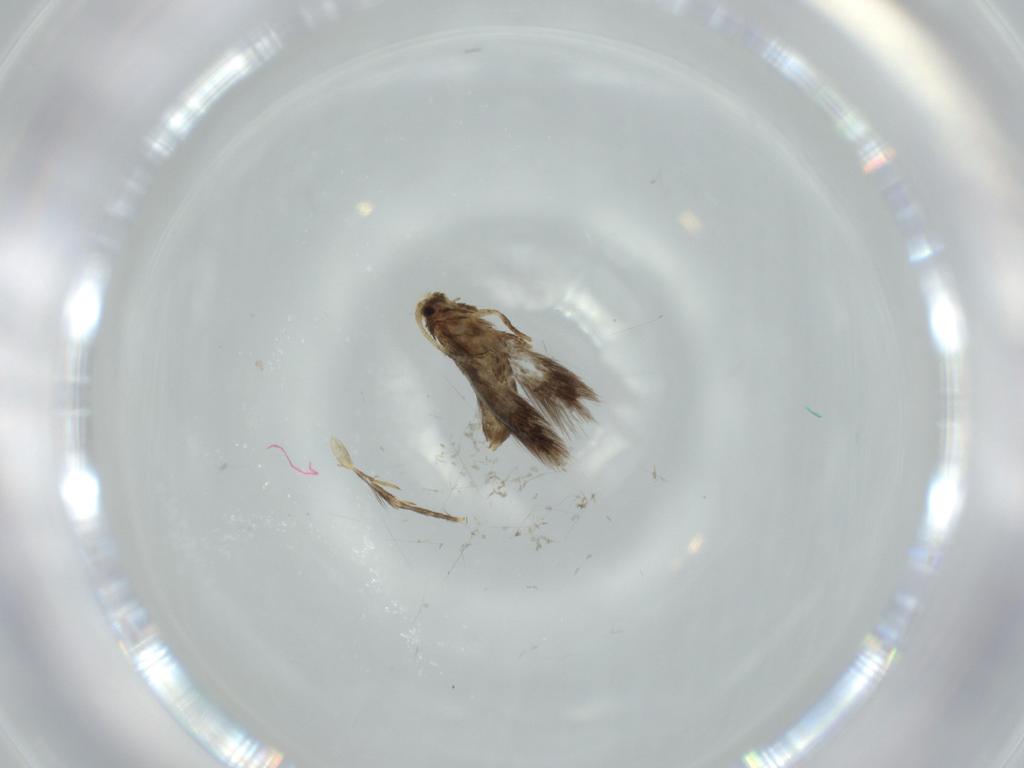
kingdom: Animalia
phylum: Arthropoda
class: Insecta
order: Lepidoptera
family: Nepticulidae
